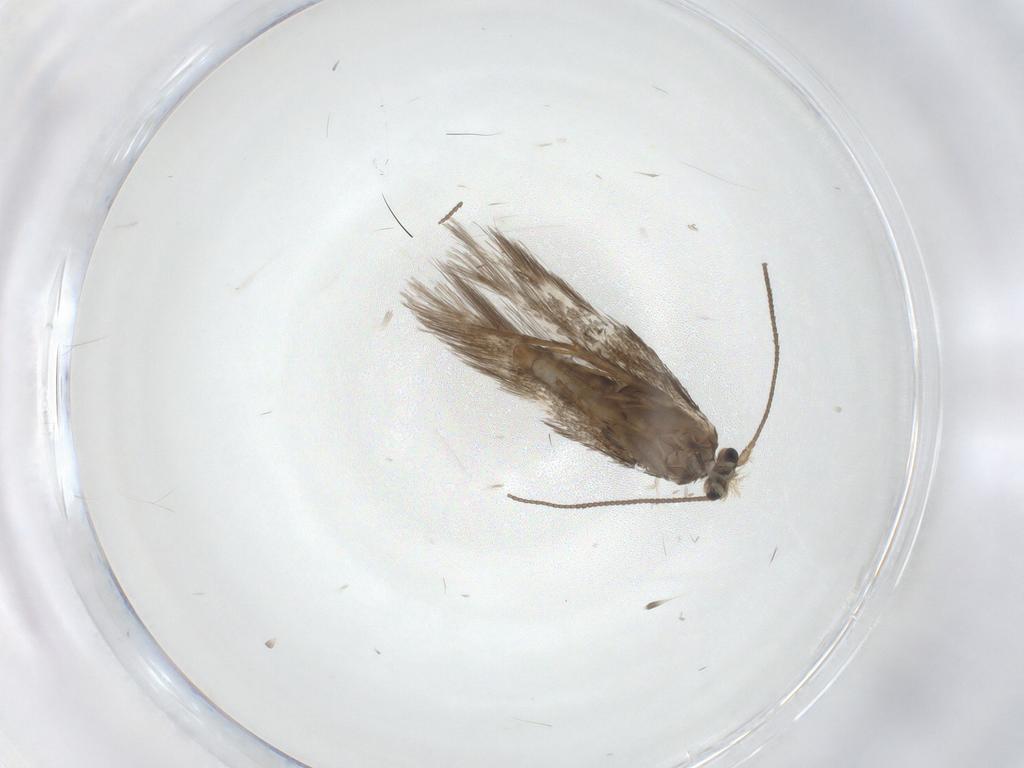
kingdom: Animalia
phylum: Arthropoda
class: Insecta
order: Lepidoptera
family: Nepticulidae
